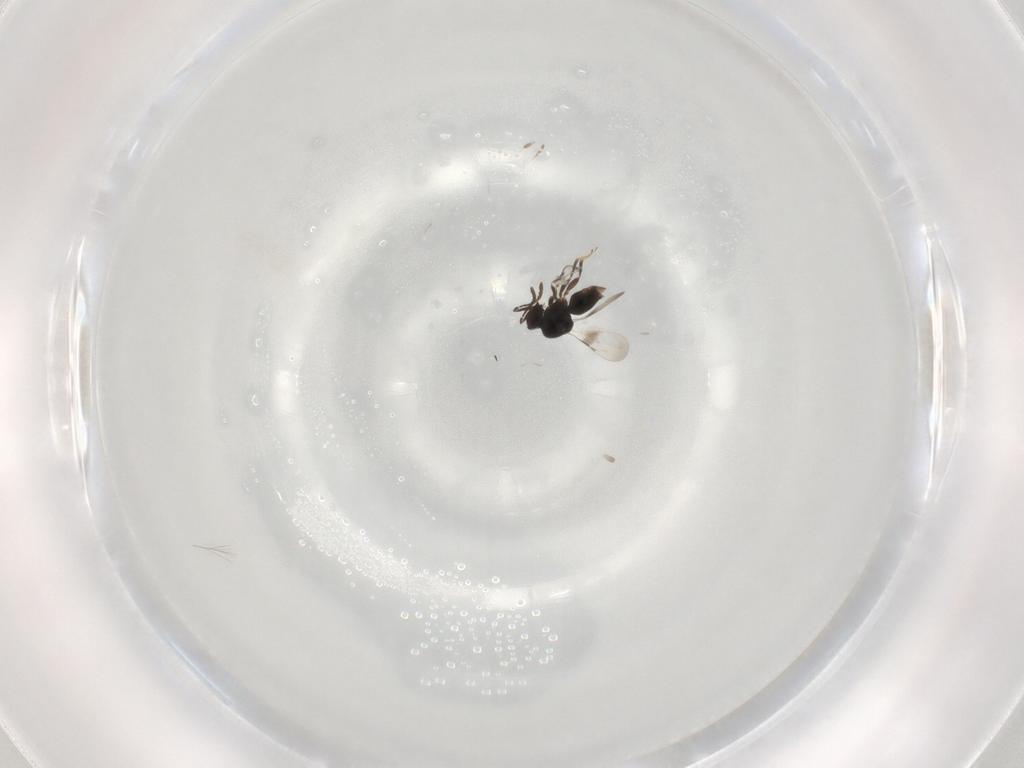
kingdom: Animalia
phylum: Arthropoda
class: Insecta
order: Hymenoptera
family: Ceraphronidae
